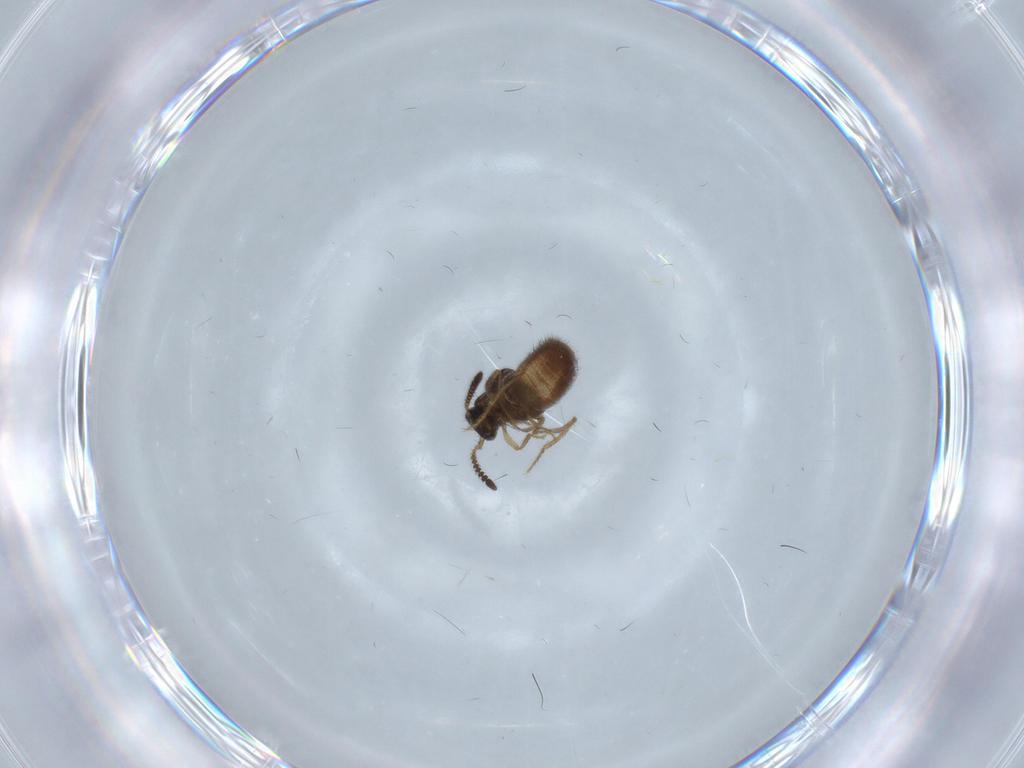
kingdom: Animalia
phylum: Arthropoda
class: Insecta
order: Coleoptera
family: Staphylinidae
